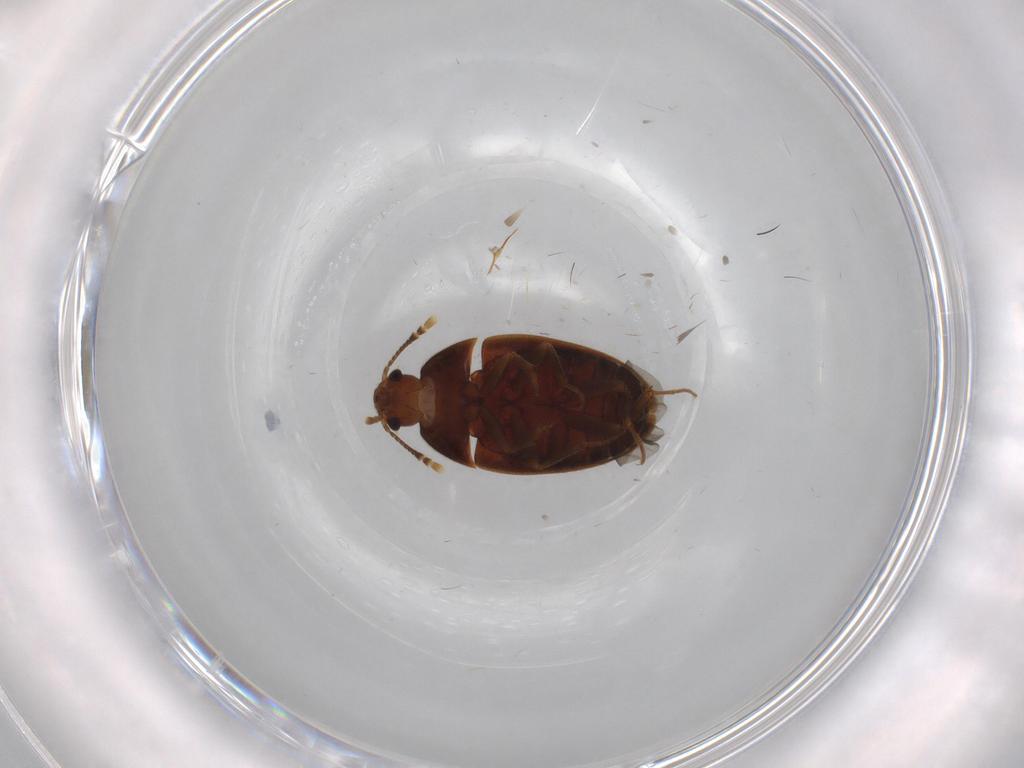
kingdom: Animalia
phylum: Arthropoda
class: Insecta
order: Coleoptera
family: Mycetophagidae
